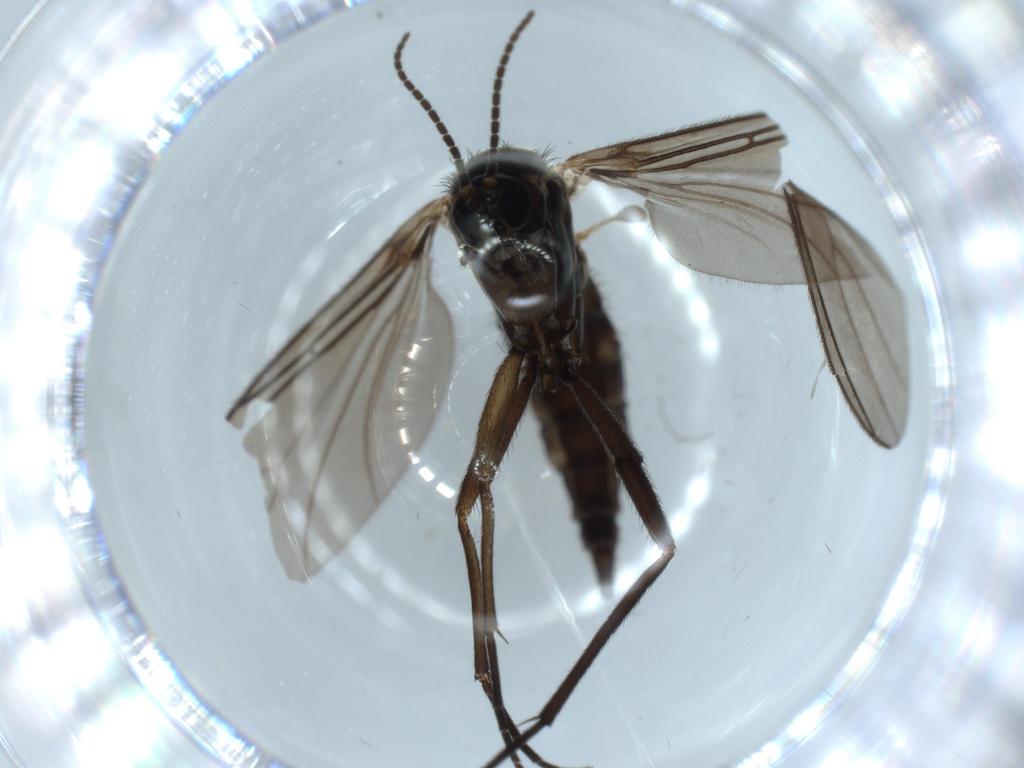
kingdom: Animalia
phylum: Arthropoda
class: Insecta
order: Diptera
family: Sciaridae
